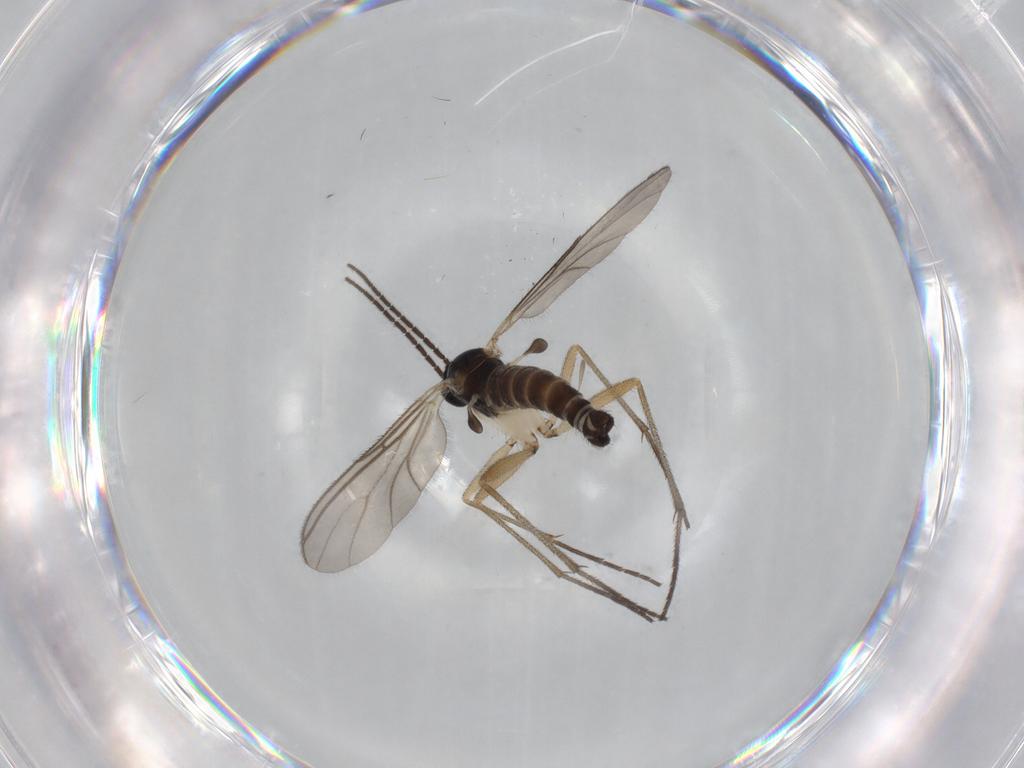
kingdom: Animalia
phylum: Arthropoda
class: Insecta
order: Diptera
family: Sciaridae
